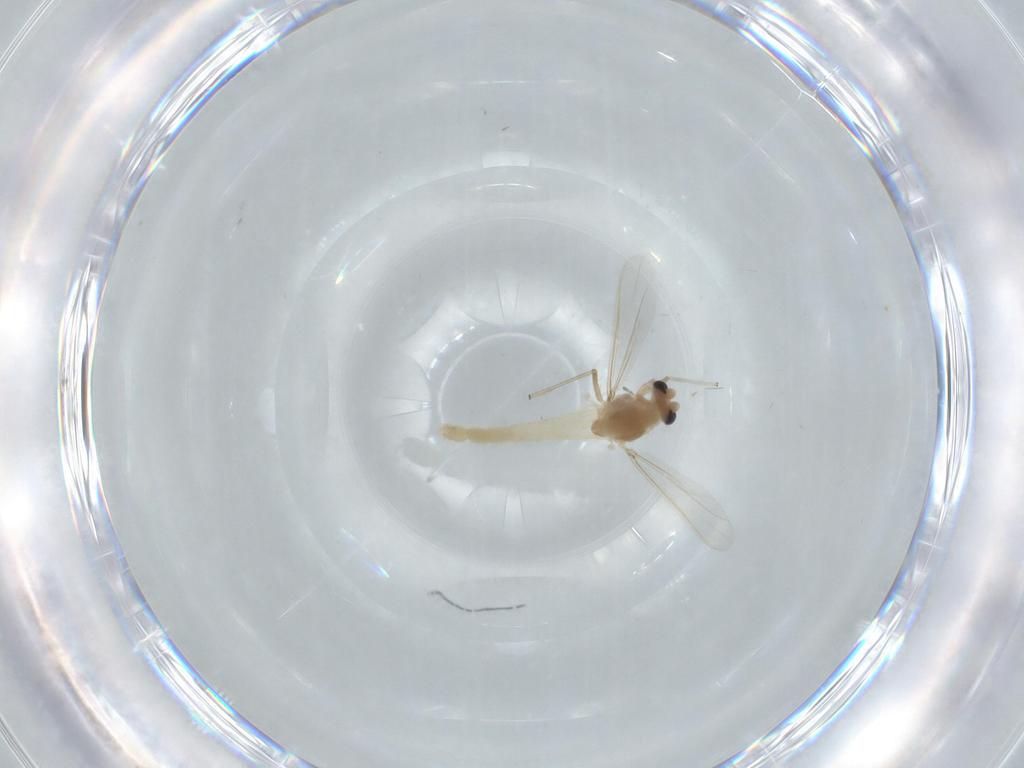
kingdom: Animalia
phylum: Arthropoda
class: Insecta
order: Diptera
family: Chironomidae
